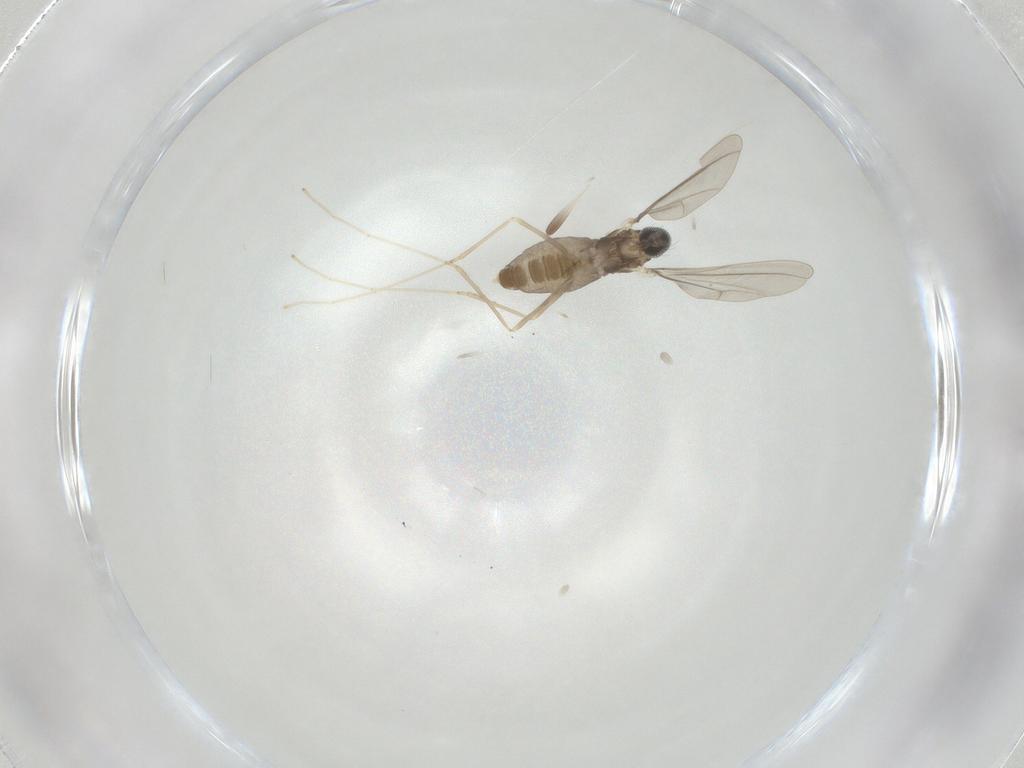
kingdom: Animalia
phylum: Arthropoda
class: Insecta
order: Diptera
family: Cecidomyiidae
